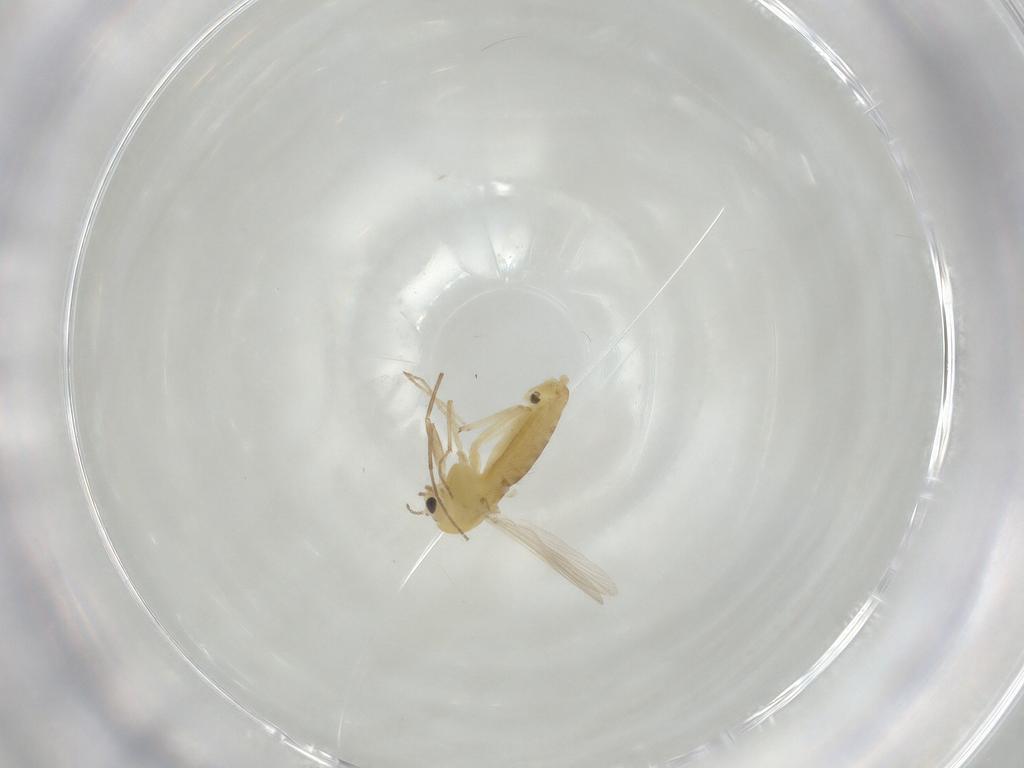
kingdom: Animalia
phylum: Arthropoda
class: Insecta
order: Diptera
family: Chironomidae
